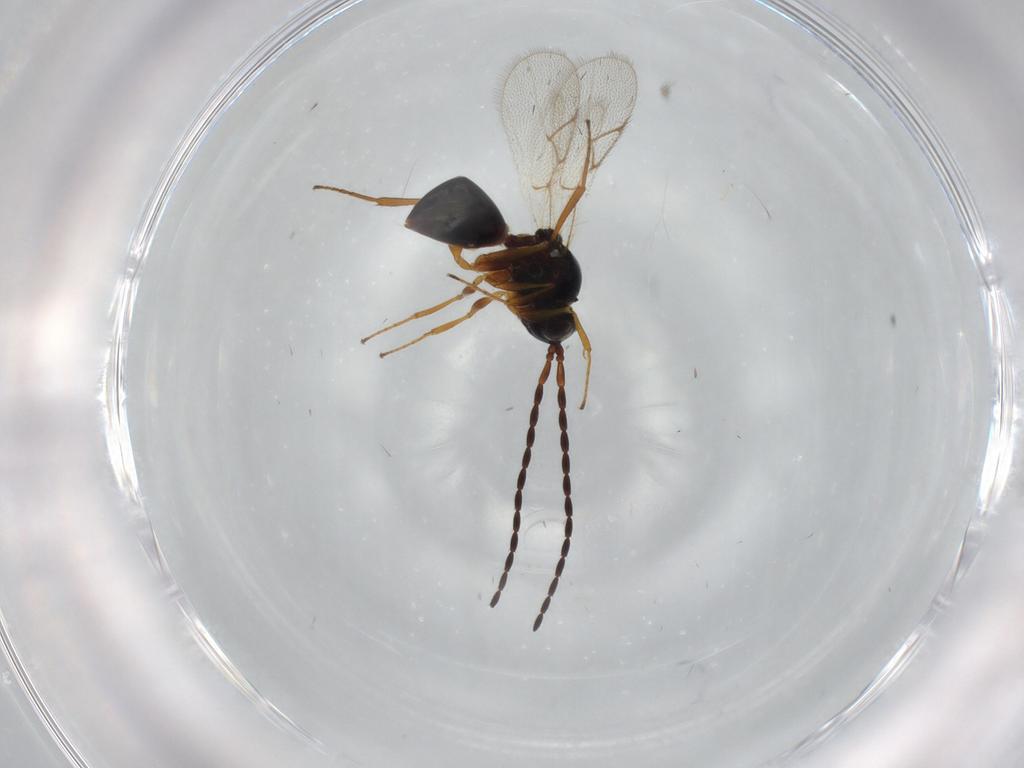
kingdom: Animalia
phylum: Arthropoda
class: Insecta
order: Hymenoptera
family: Figitidae
